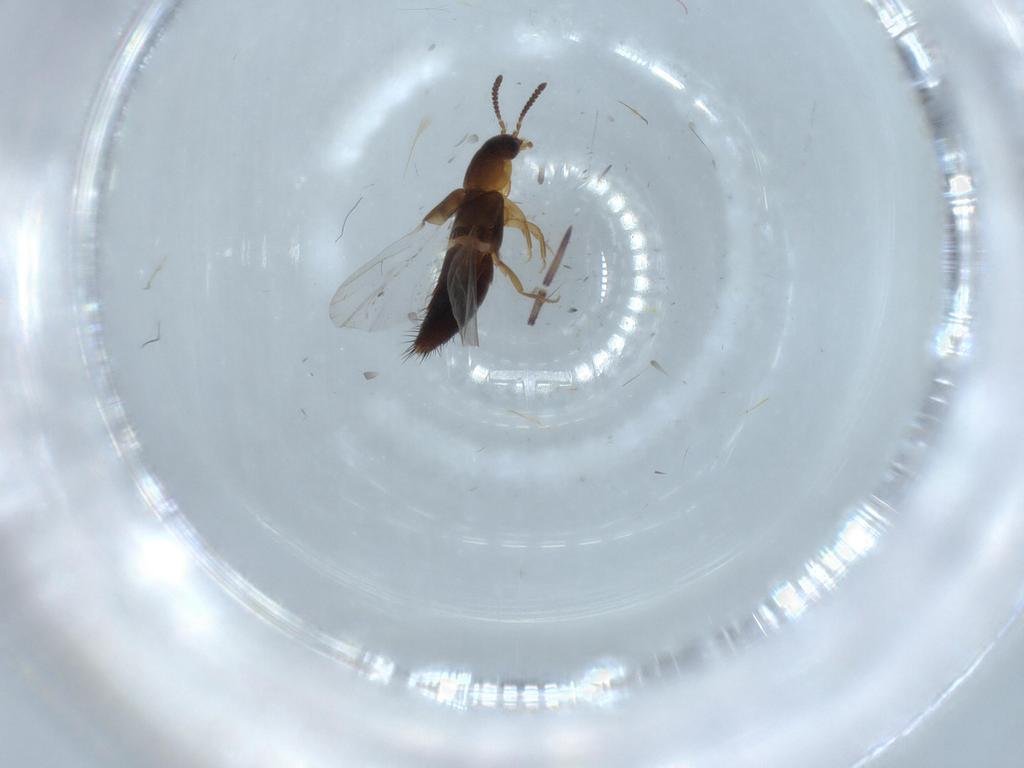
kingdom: Animalia
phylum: Arthropoda
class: Insecta
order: Coleoptera
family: Staphylinidae
